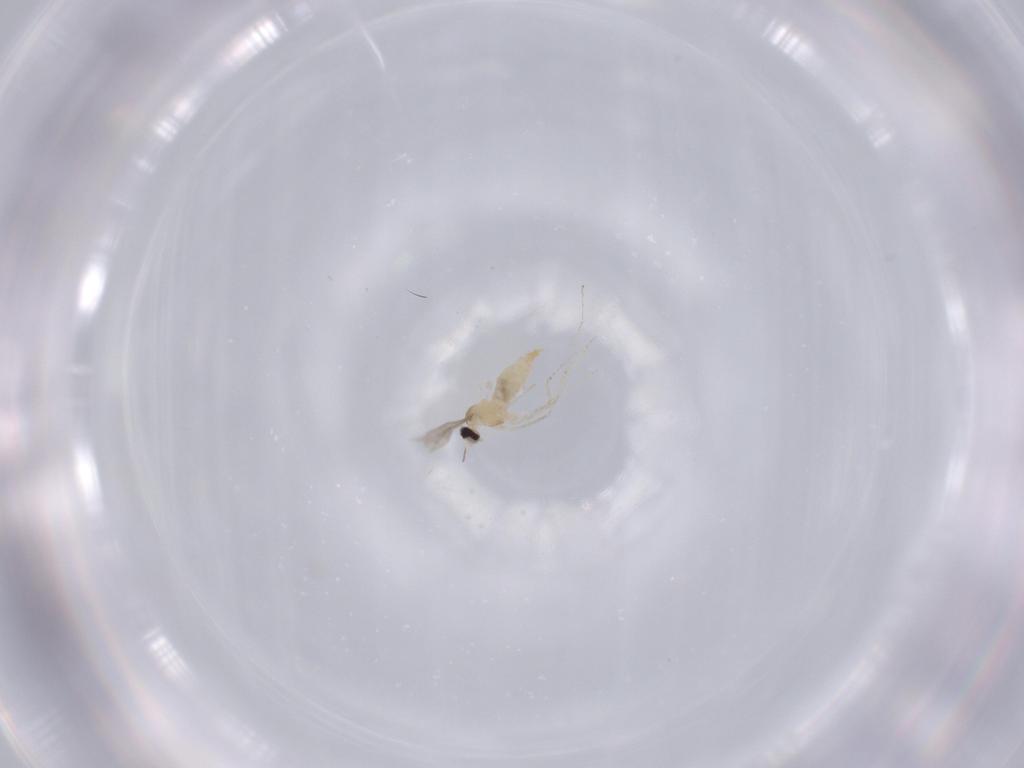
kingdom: Animalia
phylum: Arthropoda
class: Insecta
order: Diptera
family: Cecidomyiidae
